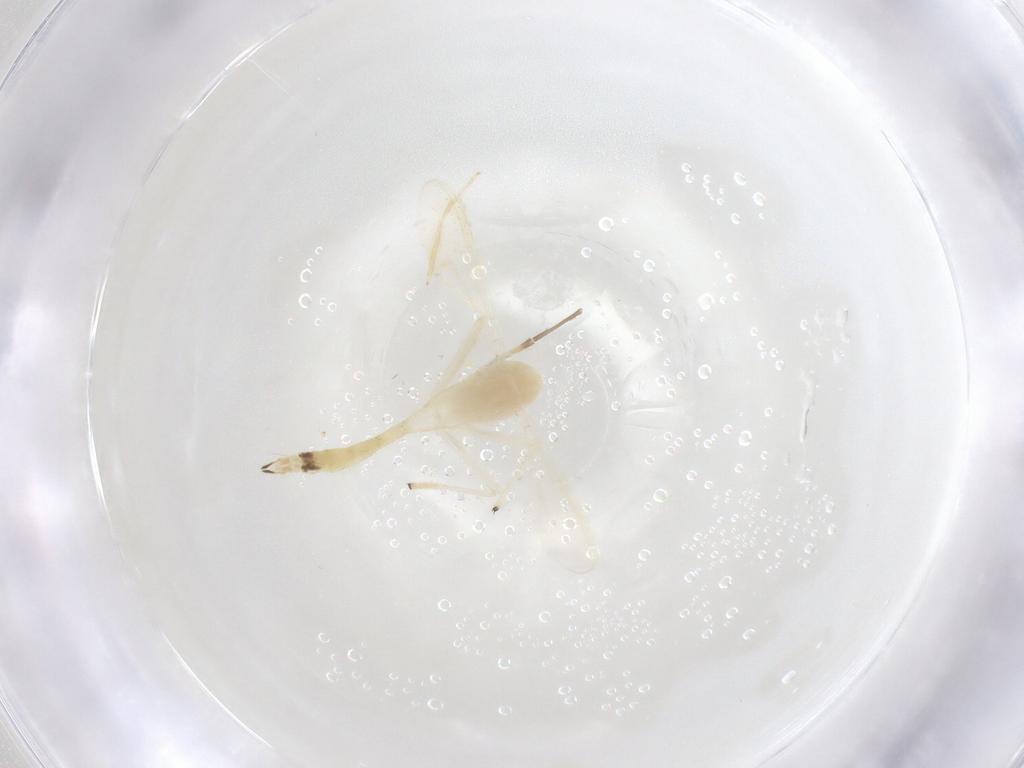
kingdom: Animalia
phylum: Arthropoda
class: Insecta
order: Diptera
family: Chironomidae
